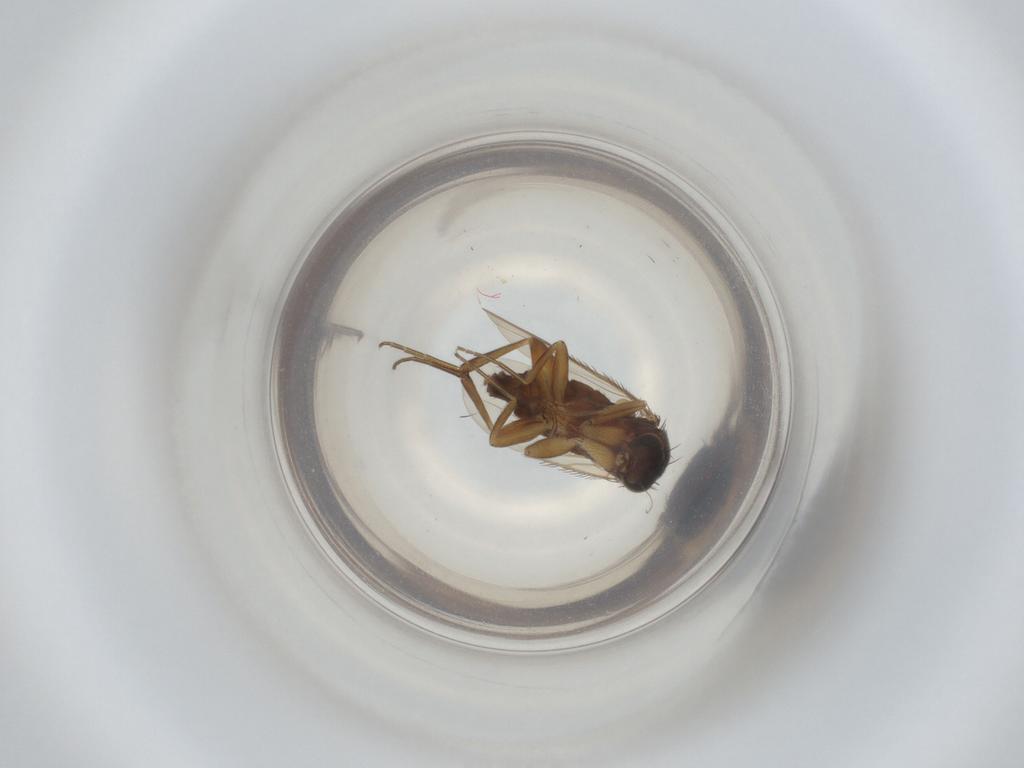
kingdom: Animalia
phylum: Arthropoda
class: Insecta
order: Diptera
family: Phoridae
